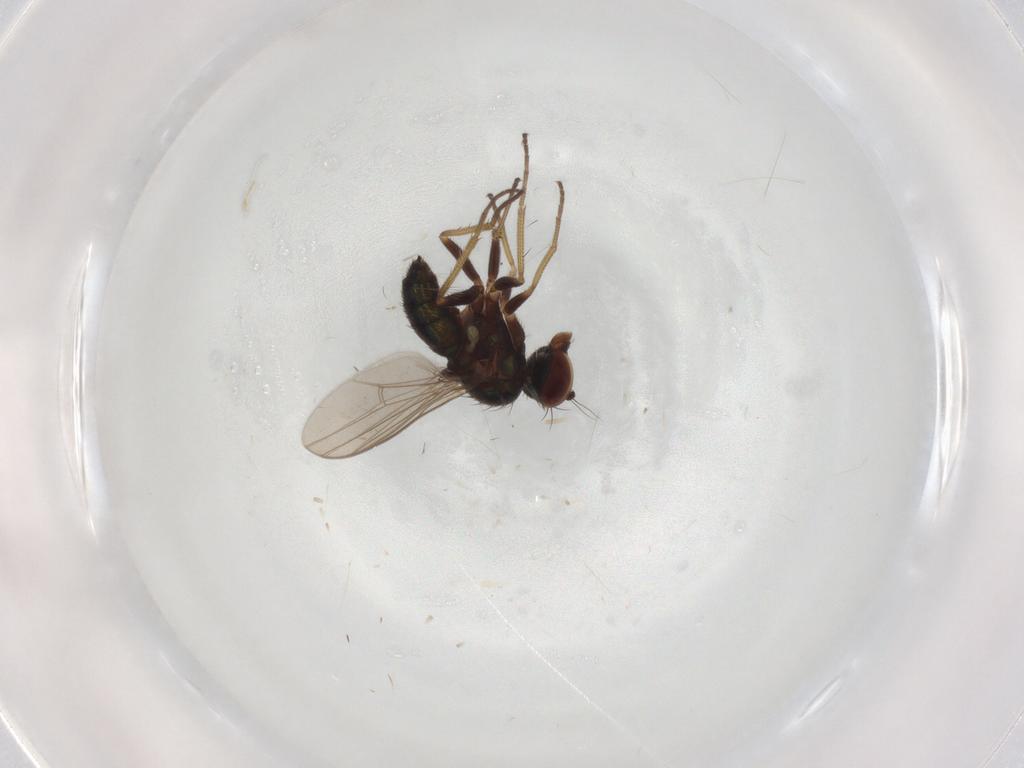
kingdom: Animalia
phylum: Arthropoda
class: Insecta
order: Diptera
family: Dolichopodidae
